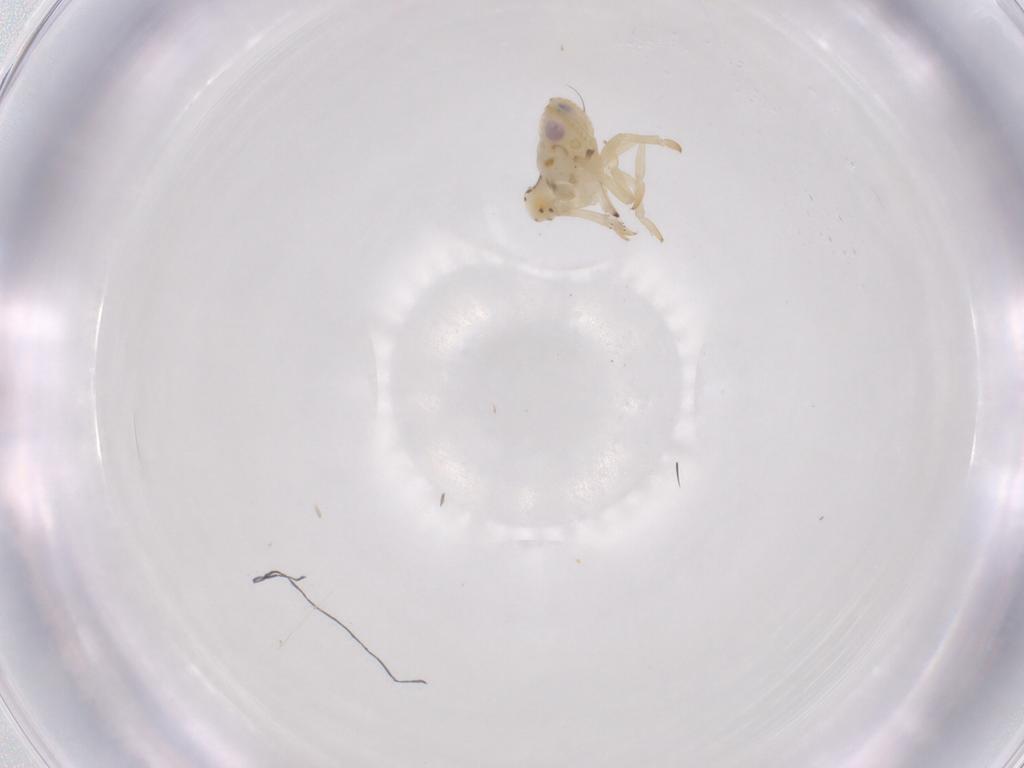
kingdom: Animalia
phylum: Arthropoda
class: Insecta
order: Hemiptera
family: Tropiduchidae
